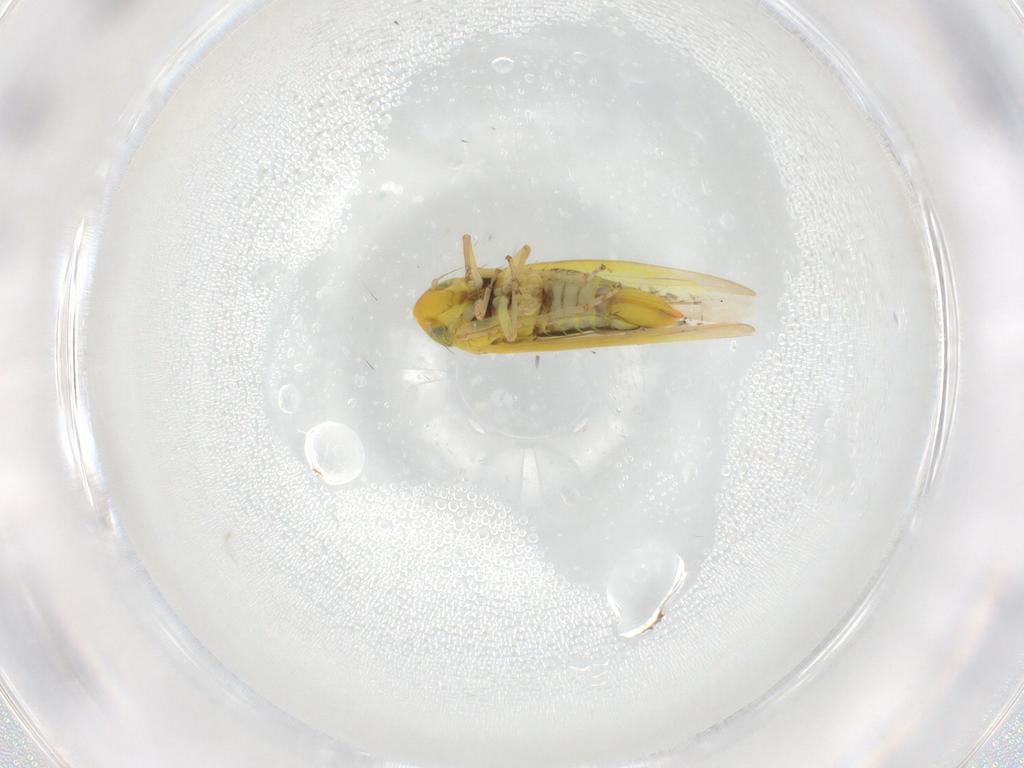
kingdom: Animalia
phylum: Arthropoda
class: Insecta
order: Hemiptera
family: Cicadellidae
